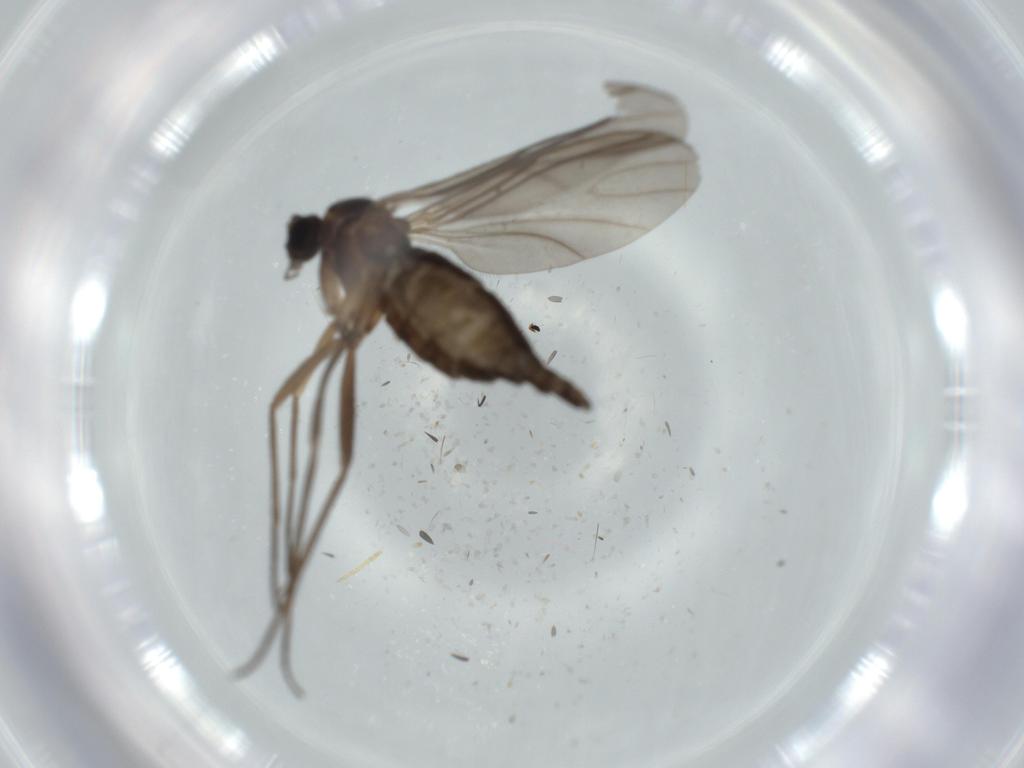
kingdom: Animalia
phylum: Arthropoda
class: Insecta
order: Diptera
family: Sciaridae
